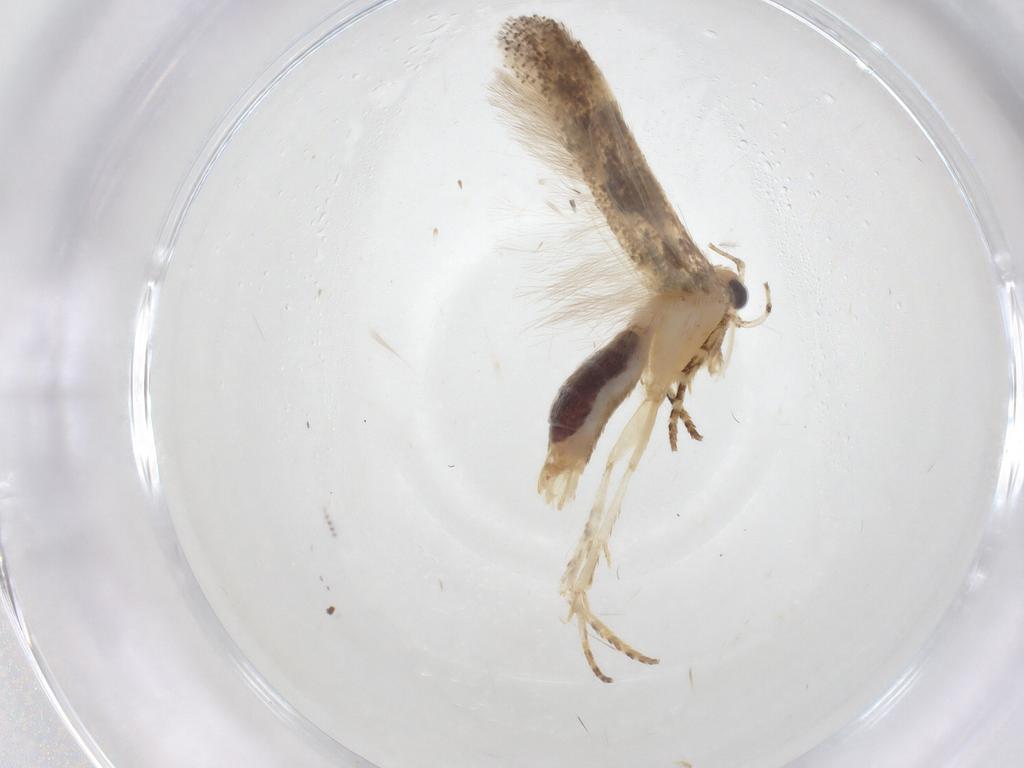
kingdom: Animalia
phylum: Arthropoda
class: Insecta
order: Lepidoptera
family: Gelechiidae
